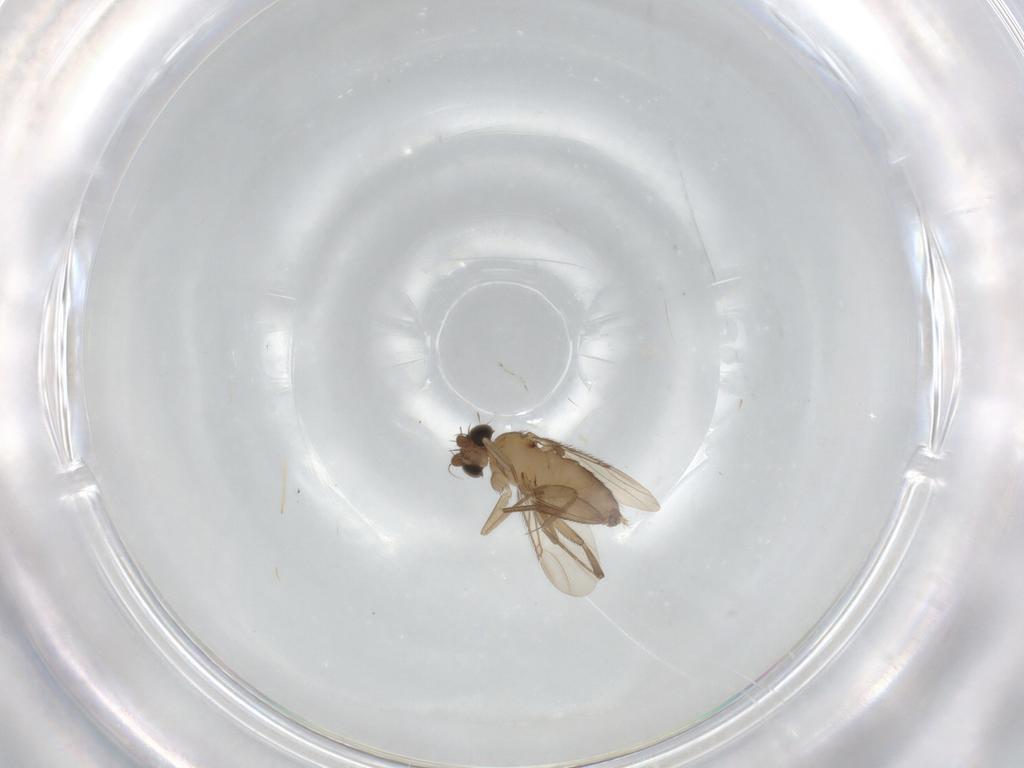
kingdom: Animalia
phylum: Arthropoda
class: Insecta
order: Diptera
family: Phoridae
